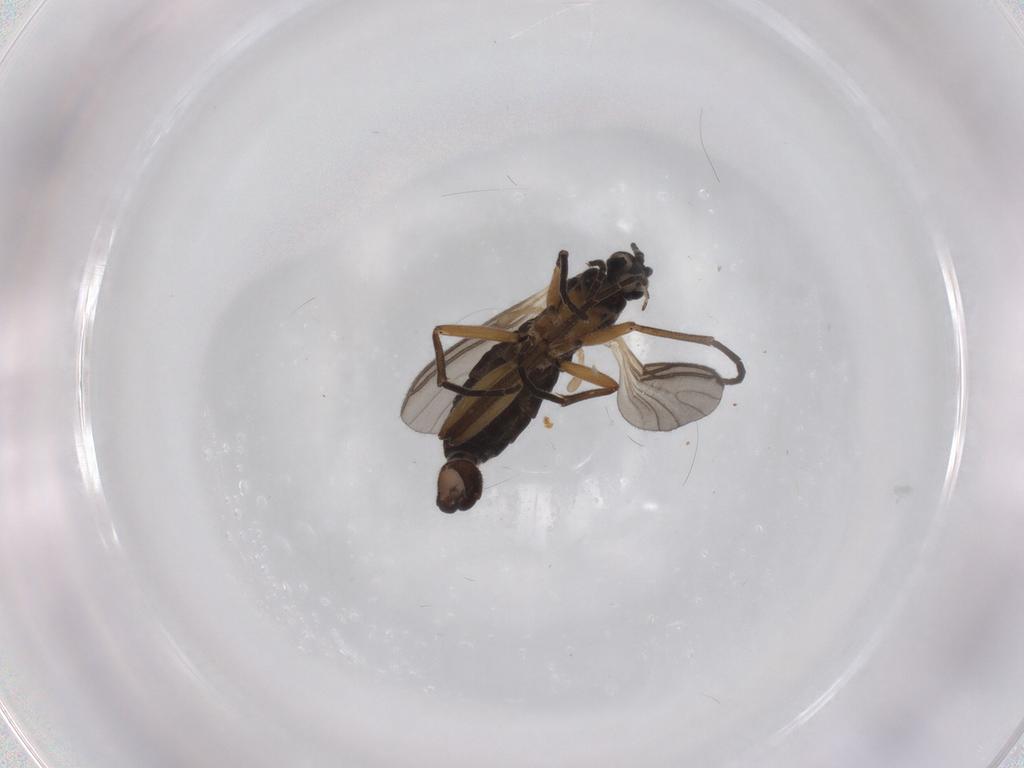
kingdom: Animalia
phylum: Arthropoda
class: Insecta
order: Diptera
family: Sciaridae
